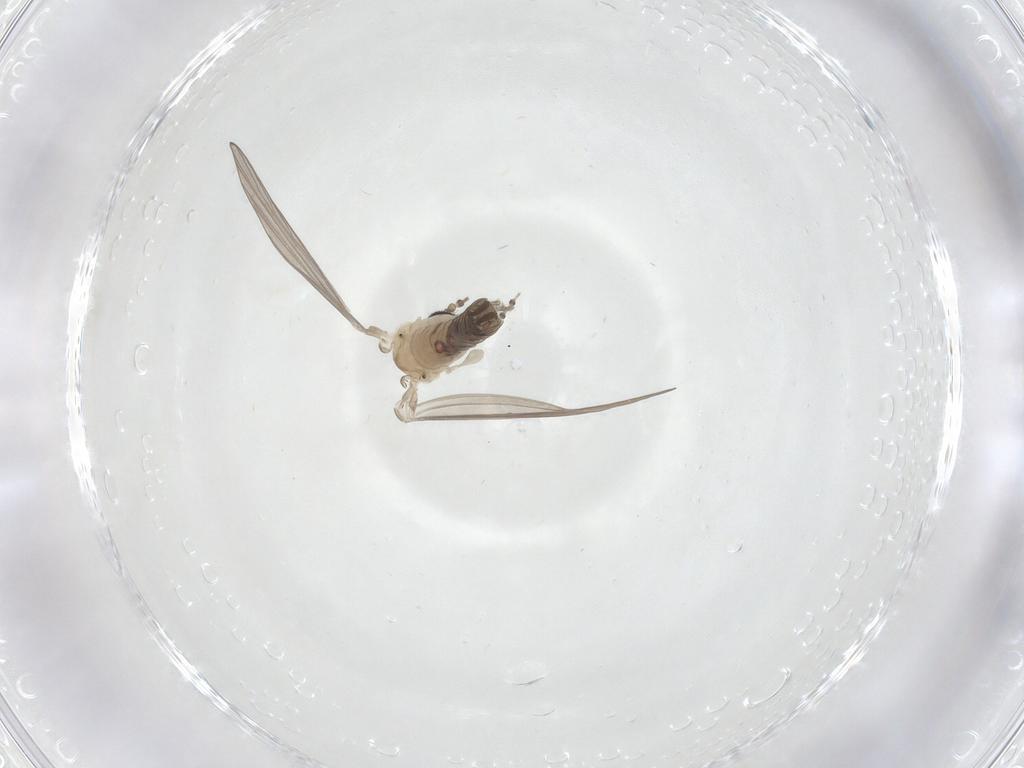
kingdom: Animalia
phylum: Arthropoda
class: Insecta
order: Diptera
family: Psychodidae
